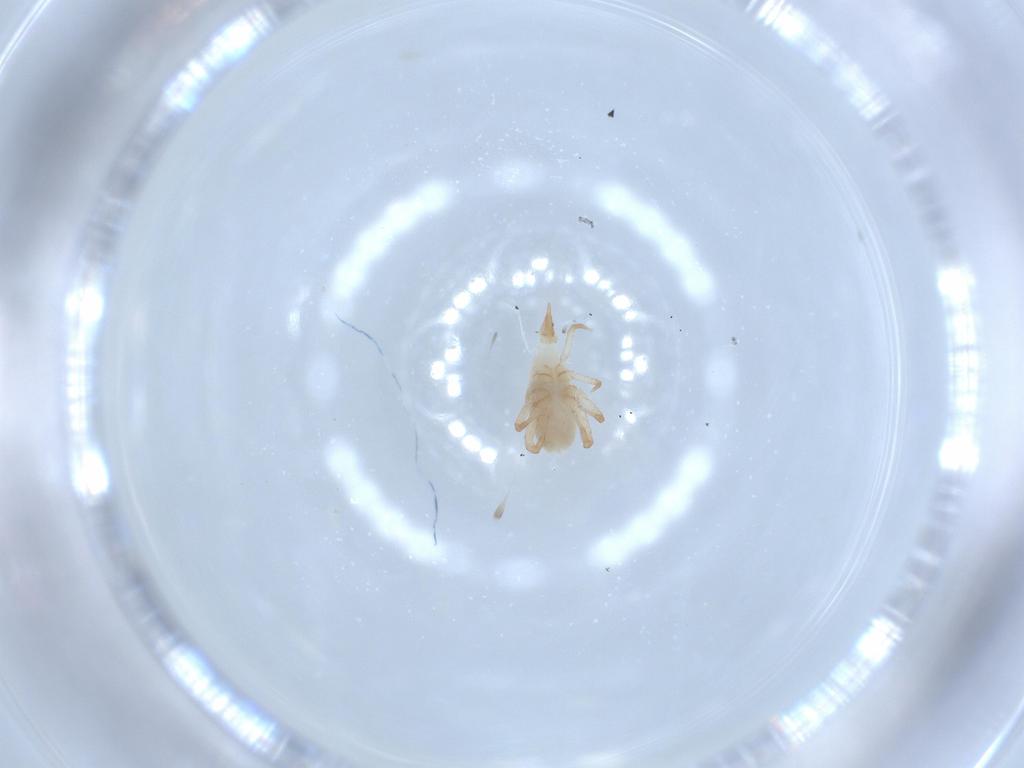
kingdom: Animalia
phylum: Arthropoda
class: Arachnida
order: Trombidiformes
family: Bdellidae
